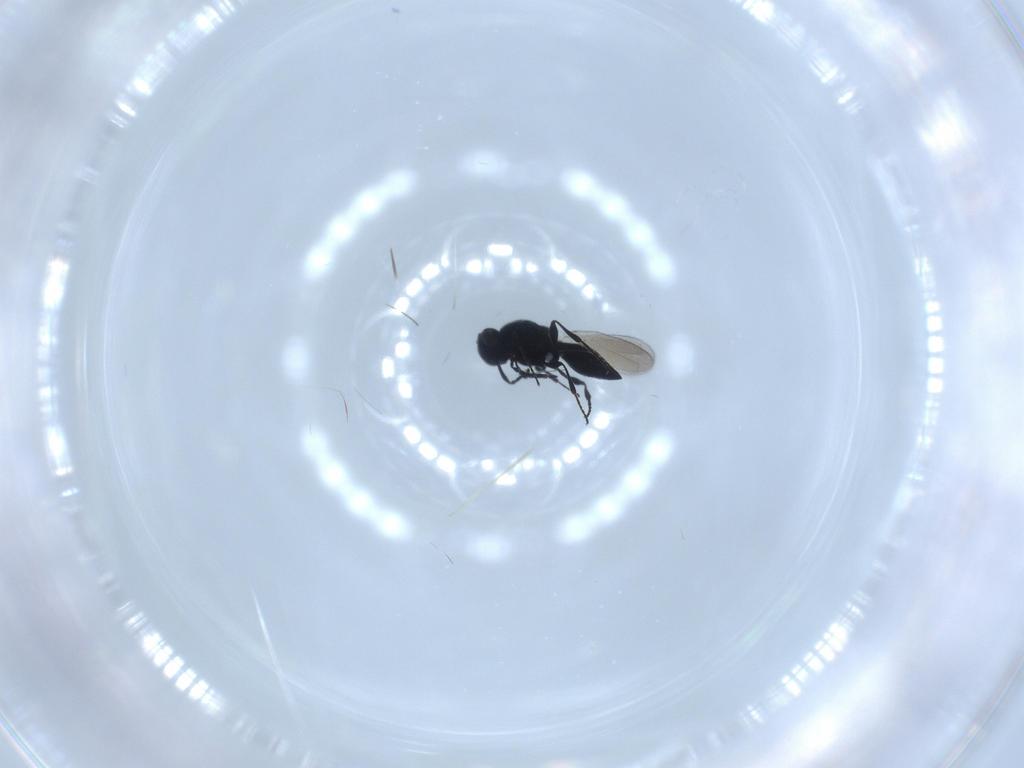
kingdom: Animalia
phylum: Arthropoda
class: Insecta
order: Hymenoptera
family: Platygastridae
